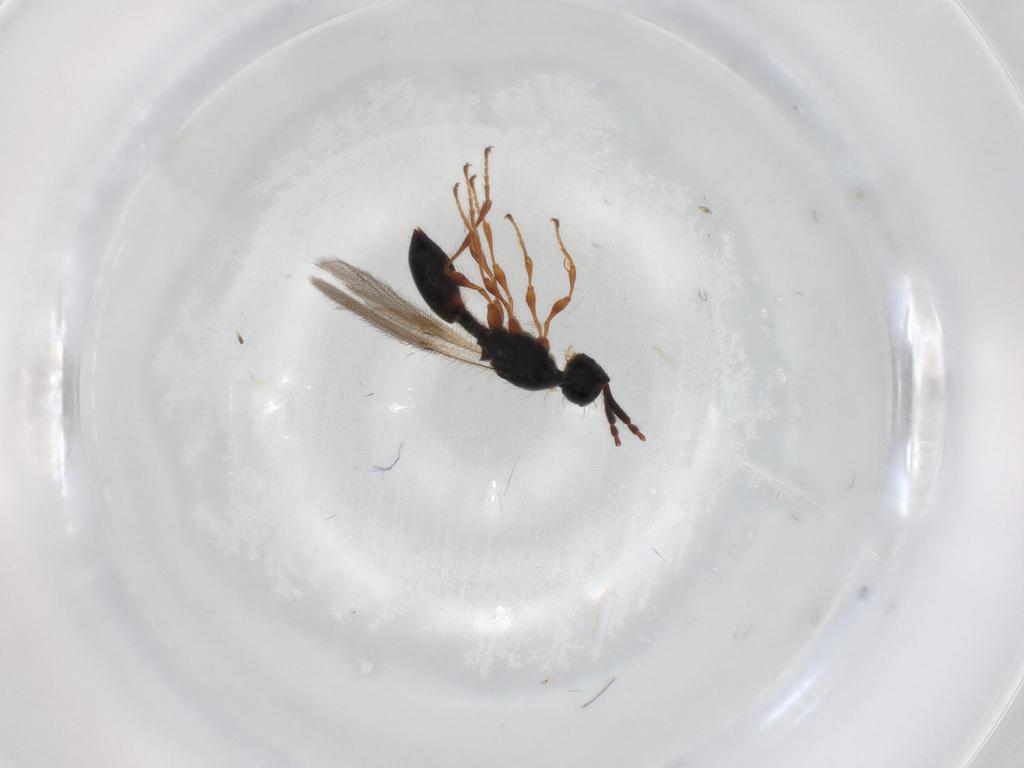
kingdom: Animalia
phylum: Arthropoda
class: Insecta
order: Hymenoptera
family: Diapriidae
